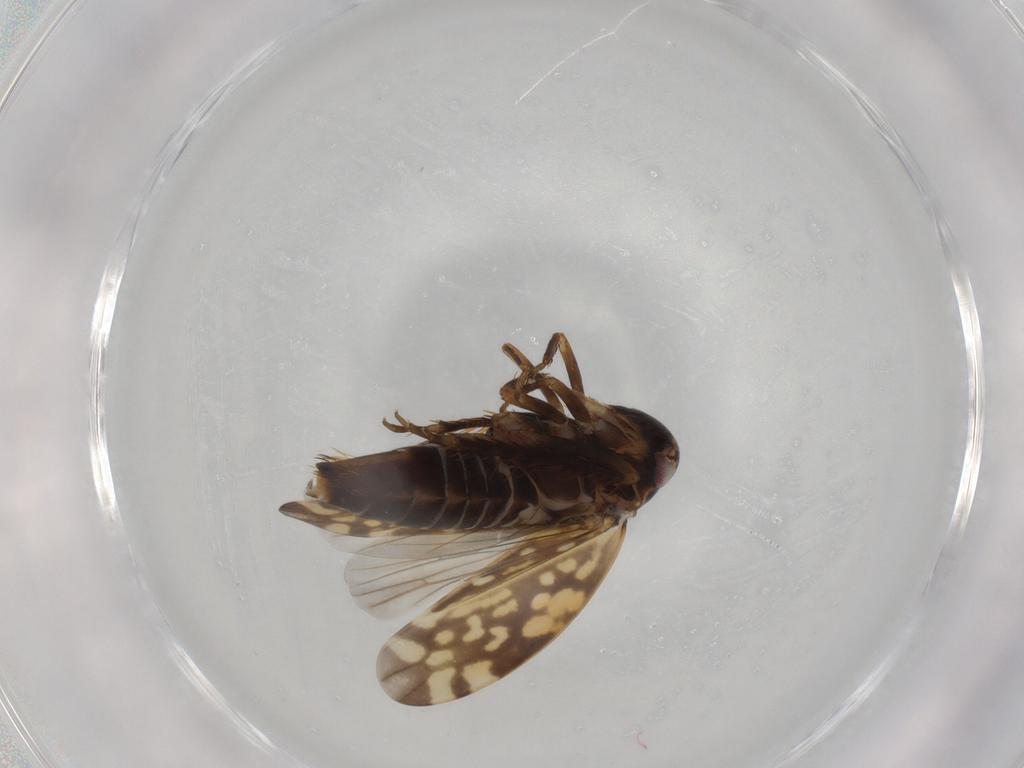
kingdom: Animalia
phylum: Arthropoda
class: Insecta
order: Hemiptera
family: Cicadellidae
